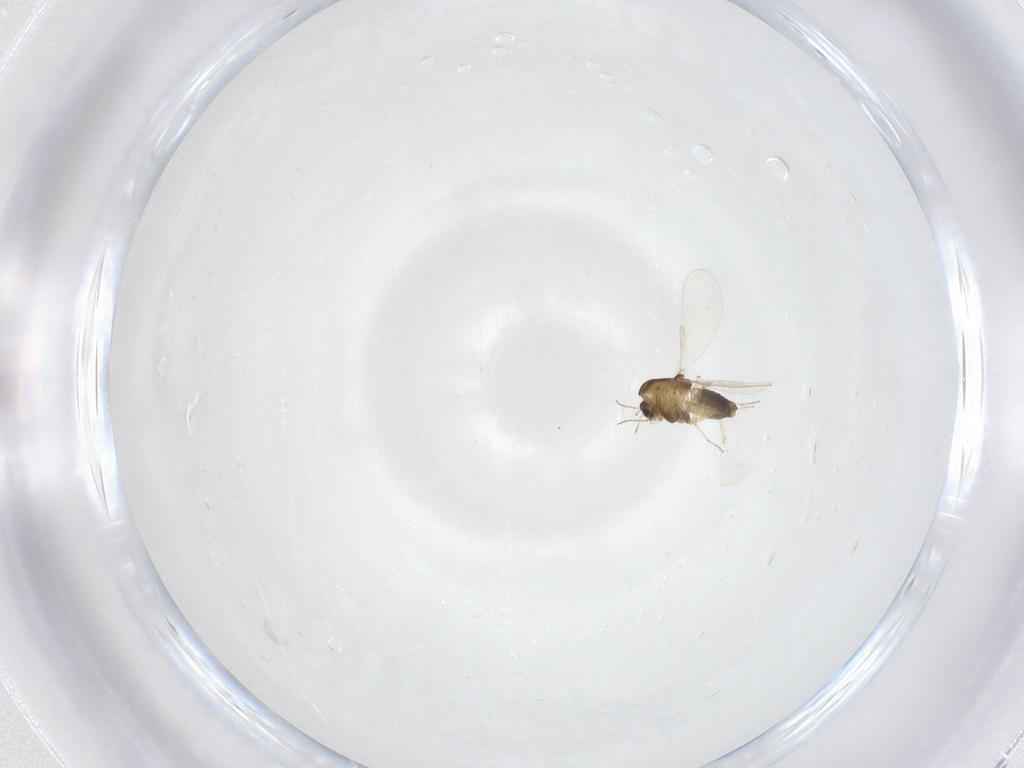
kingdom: Animalia
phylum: Arthropoda
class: Insecta
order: Diptera
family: Chironomidae
